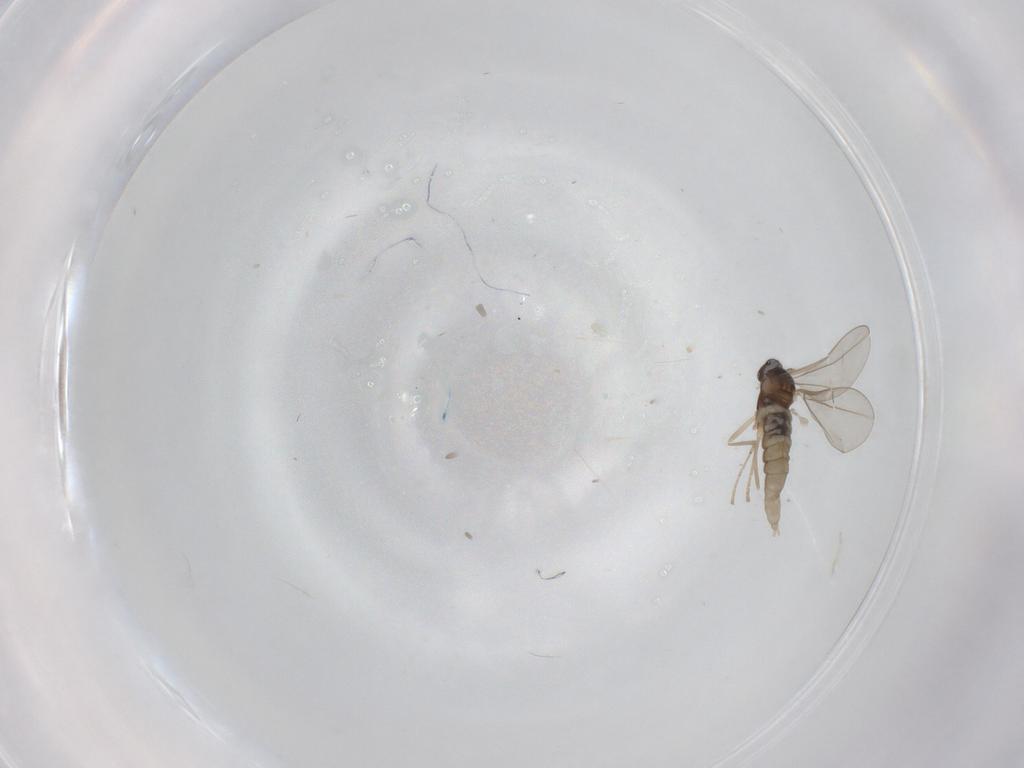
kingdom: Animalia
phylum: Arthropoda
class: Insecta
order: Diptera
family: Cecidomyiidae
